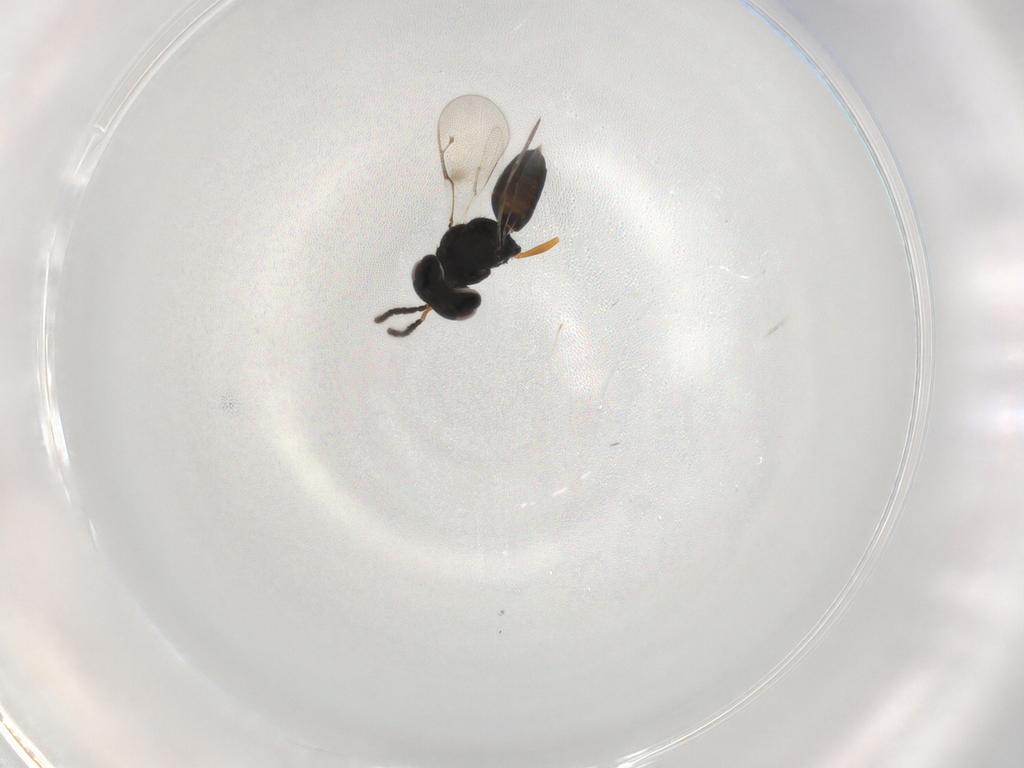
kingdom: Animalia
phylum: Arthropoda
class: Insecta
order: Hymenoptera
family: Pteromalidae
